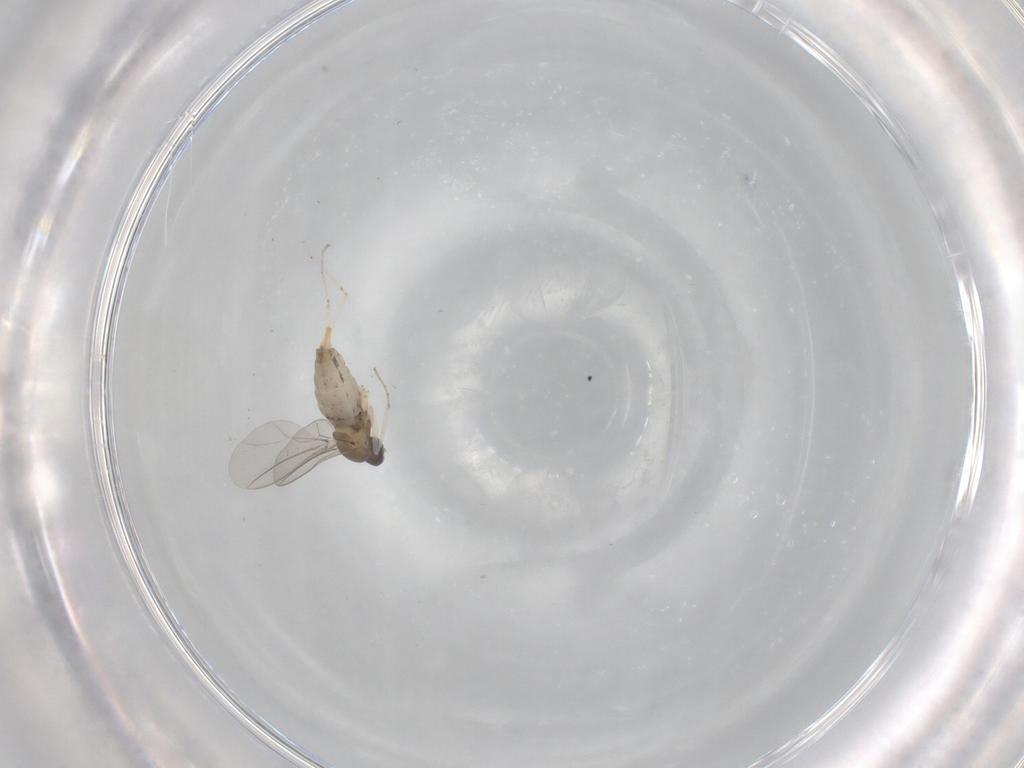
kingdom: Animalia
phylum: Arthropoda
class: Insecta
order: Diptera
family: Cecidomyiidae
